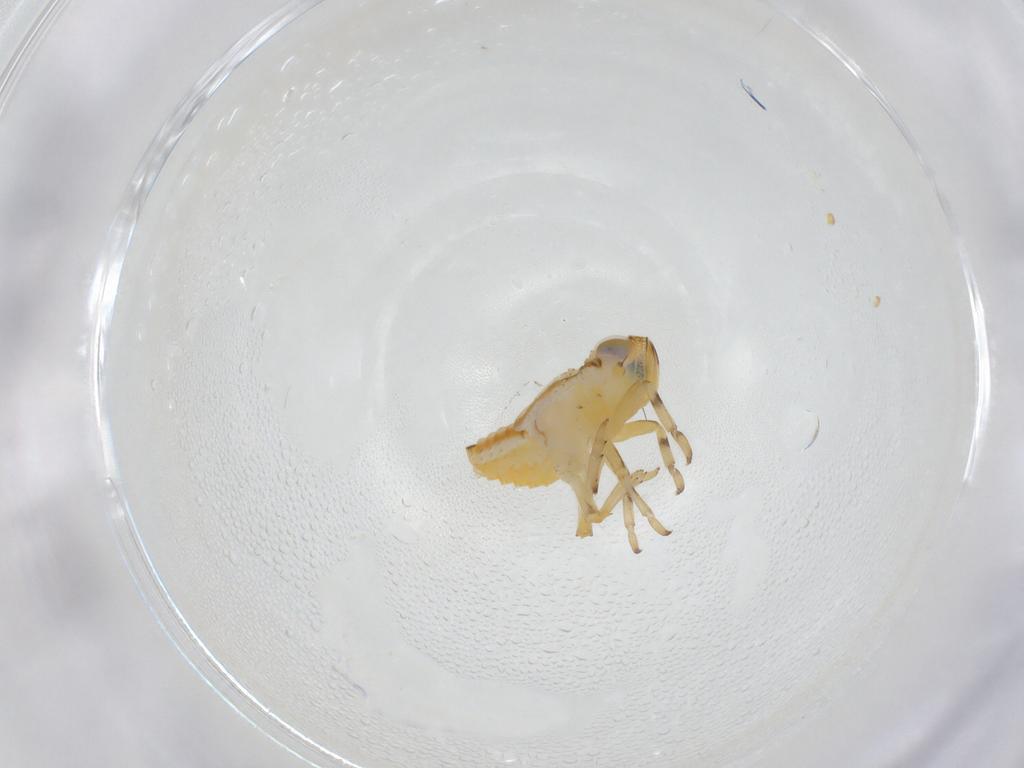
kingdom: Animalia
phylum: Arthropoda
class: Insecta
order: Hemiptera
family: Issidae
